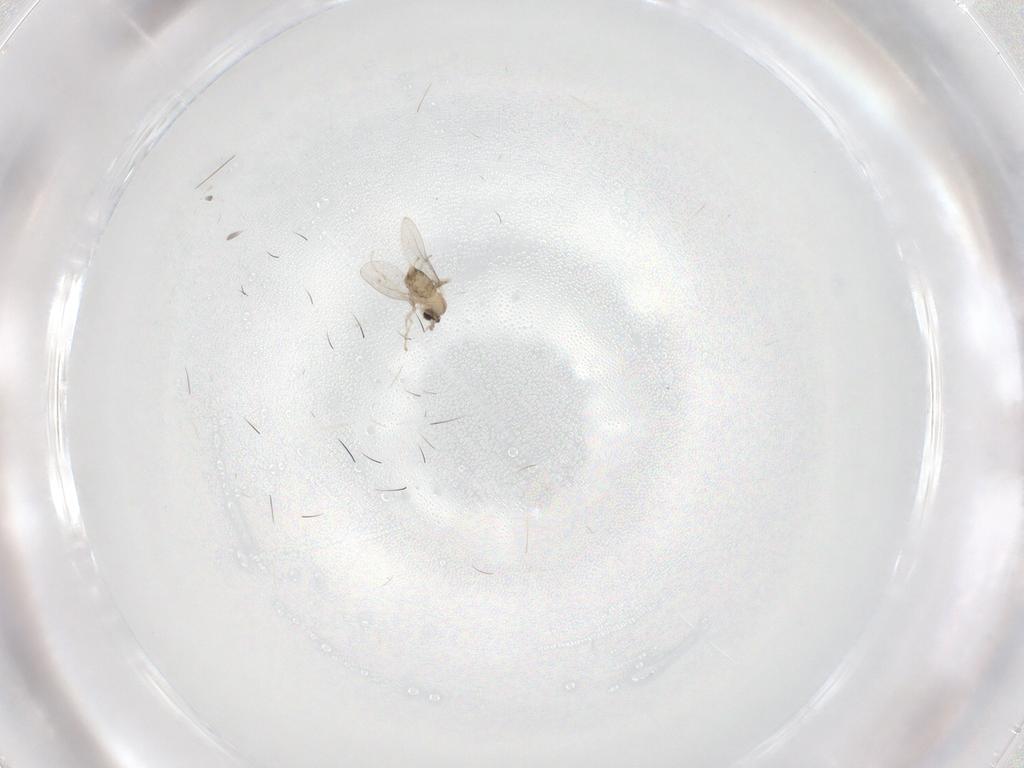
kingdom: Animalia
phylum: Arthropoda
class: Insecta
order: Diptera
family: Cecidomyiidae
